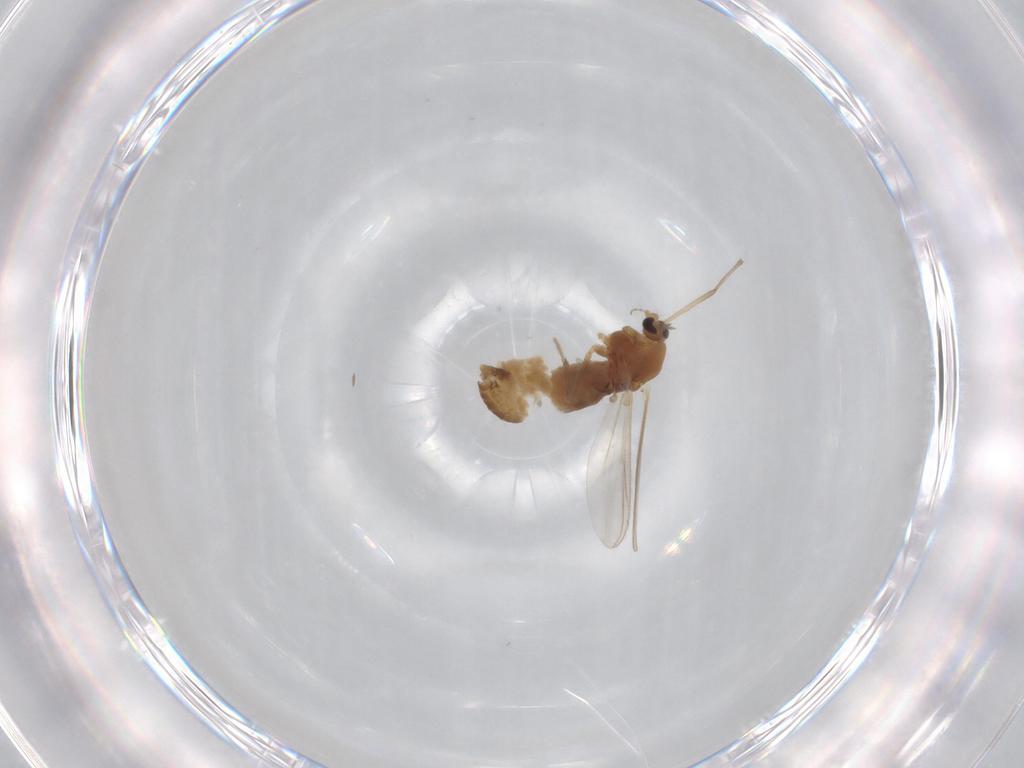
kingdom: Animalia
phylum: Arthropoda
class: Insecta
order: Diptera
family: Chironomidae
